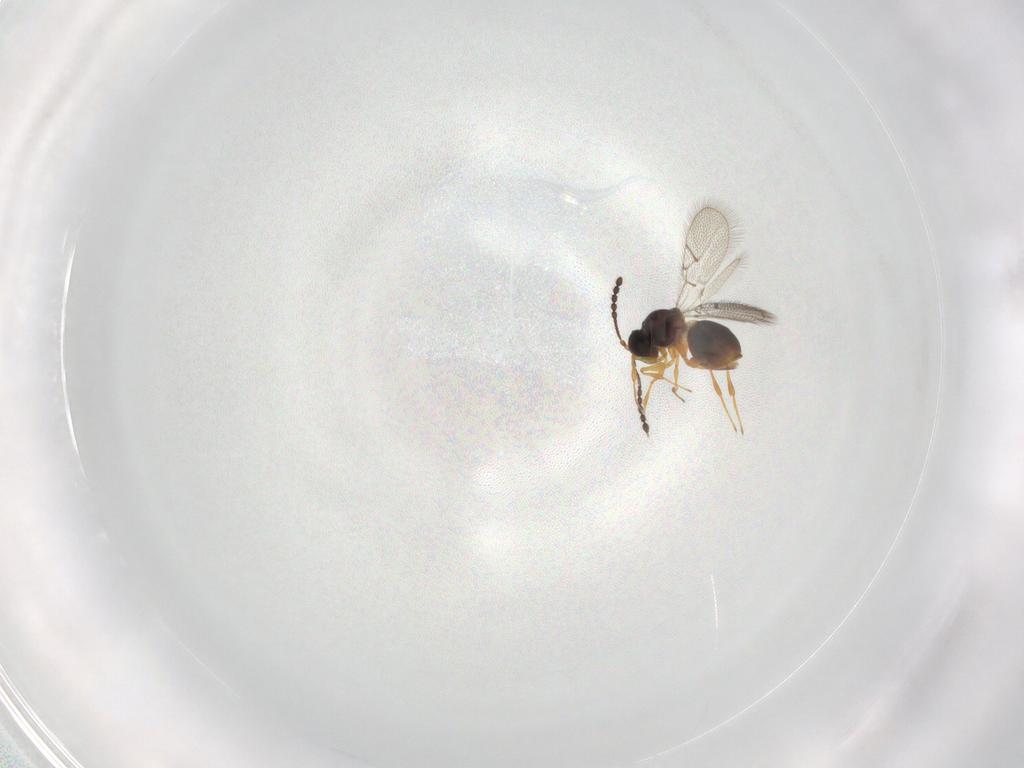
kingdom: Animalia
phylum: Arthropoda
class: Insecta
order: Hymenoptera
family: Figitidae
